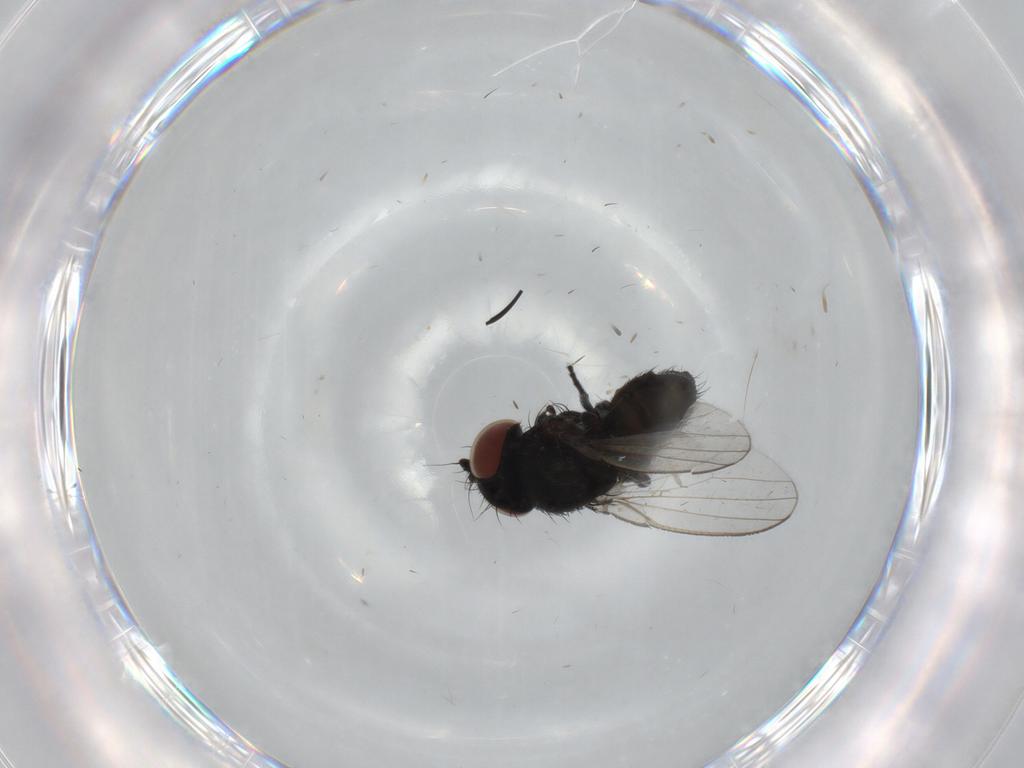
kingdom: Animalia
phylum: Arthropoda
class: Insecta
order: Diptera
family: Milichiidae
